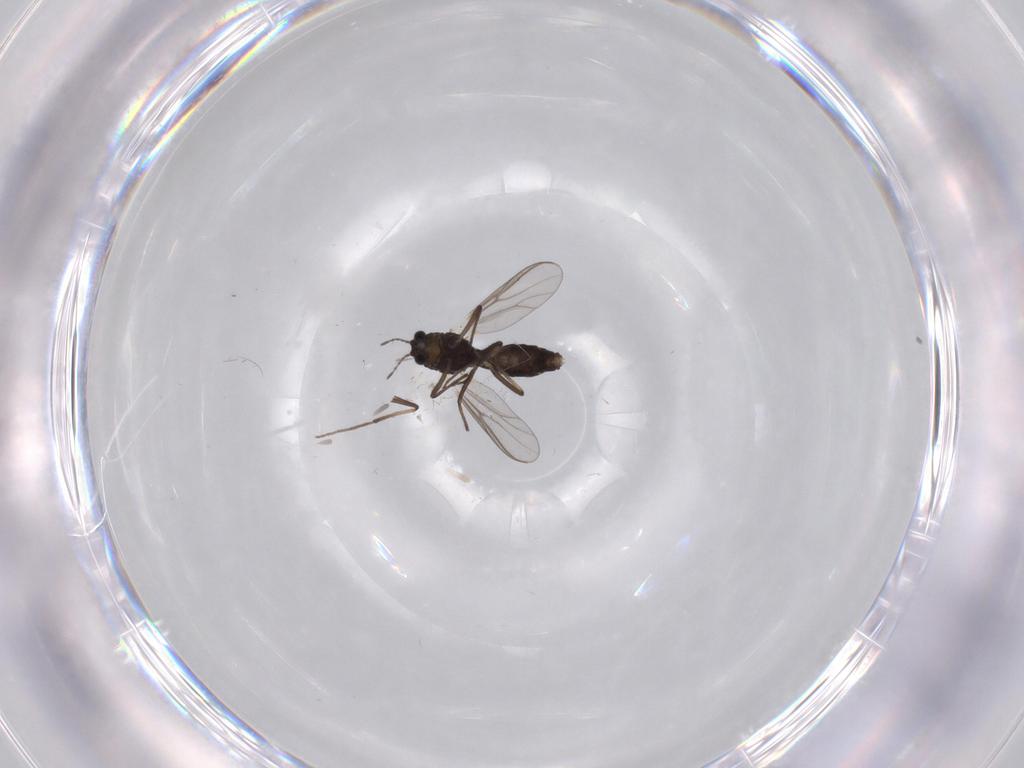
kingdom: Animalia
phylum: Arthropoda
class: Insecta
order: Diptera
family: Chironomidae
